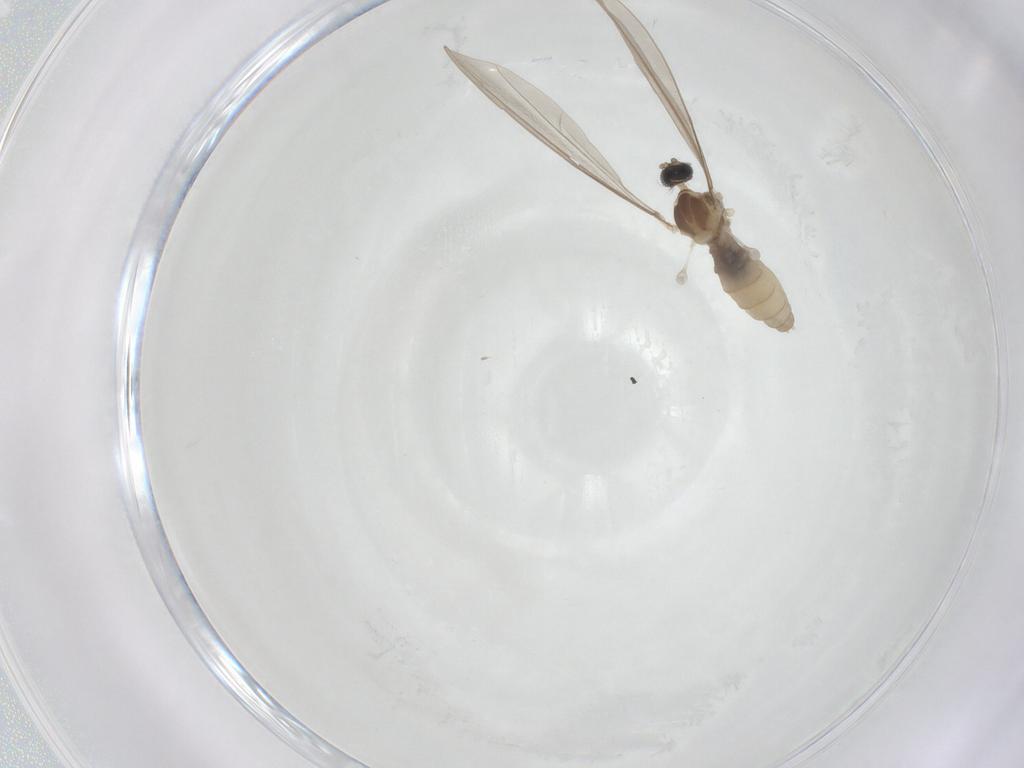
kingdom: Animalia
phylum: Arthropoda
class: Insecta
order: Diptera
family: Cecidomyiidae
